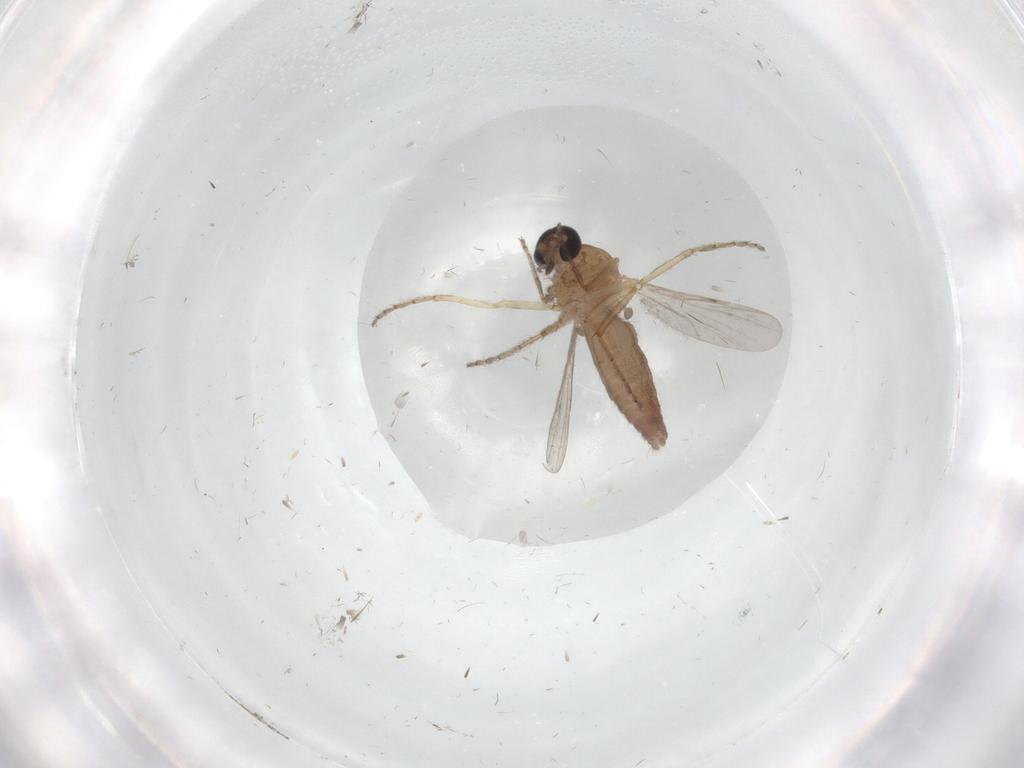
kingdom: Animalia
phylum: Arthropoda
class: Insecta
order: Diptera
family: Ceratopogonidae
